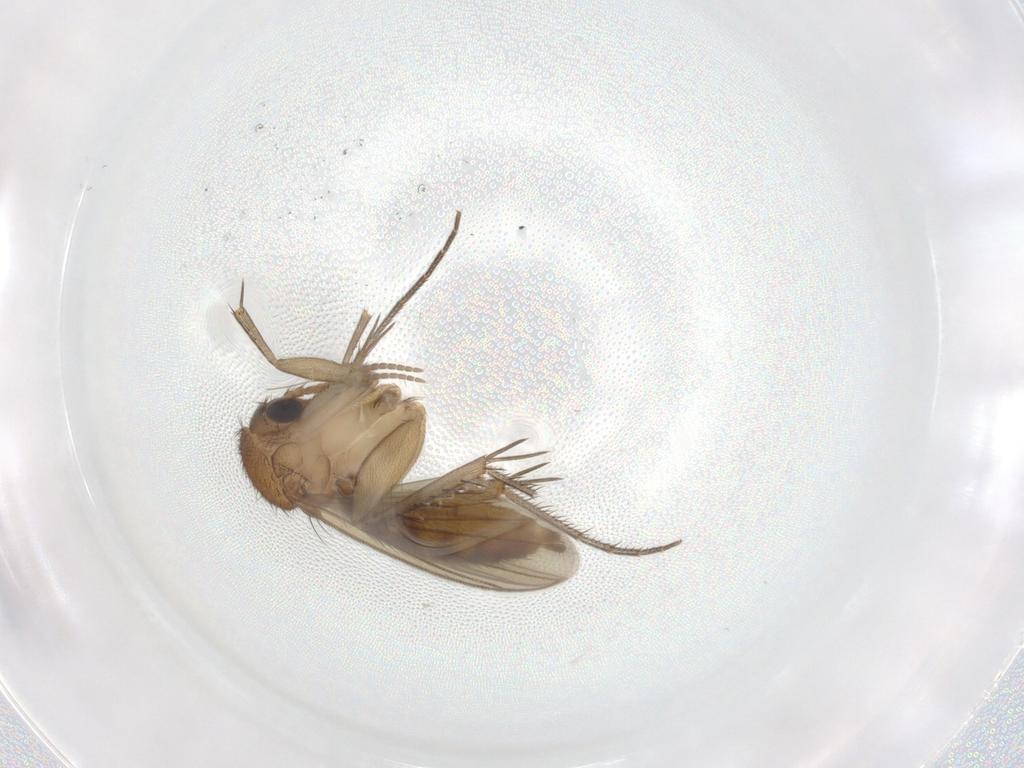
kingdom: Animalia
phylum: Arthropoda
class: Insecta
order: Diptera
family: Mycetophilidae
